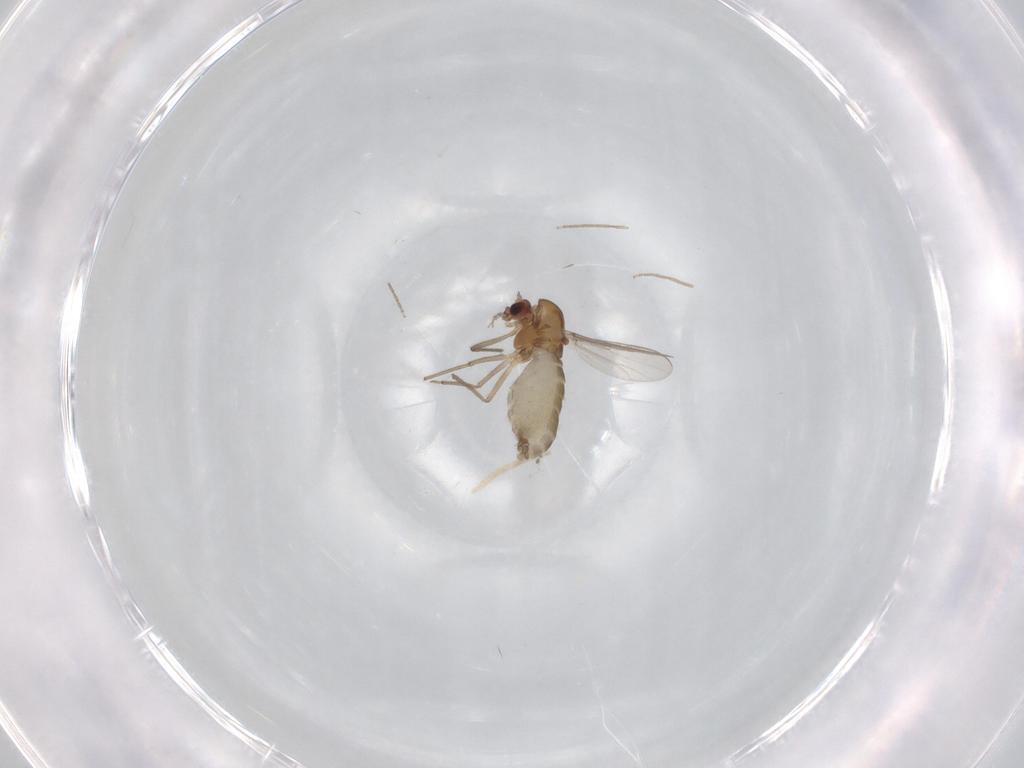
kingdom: Animalia
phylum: Arthropoda
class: Insecta
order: Diptera
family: Chironomidae
